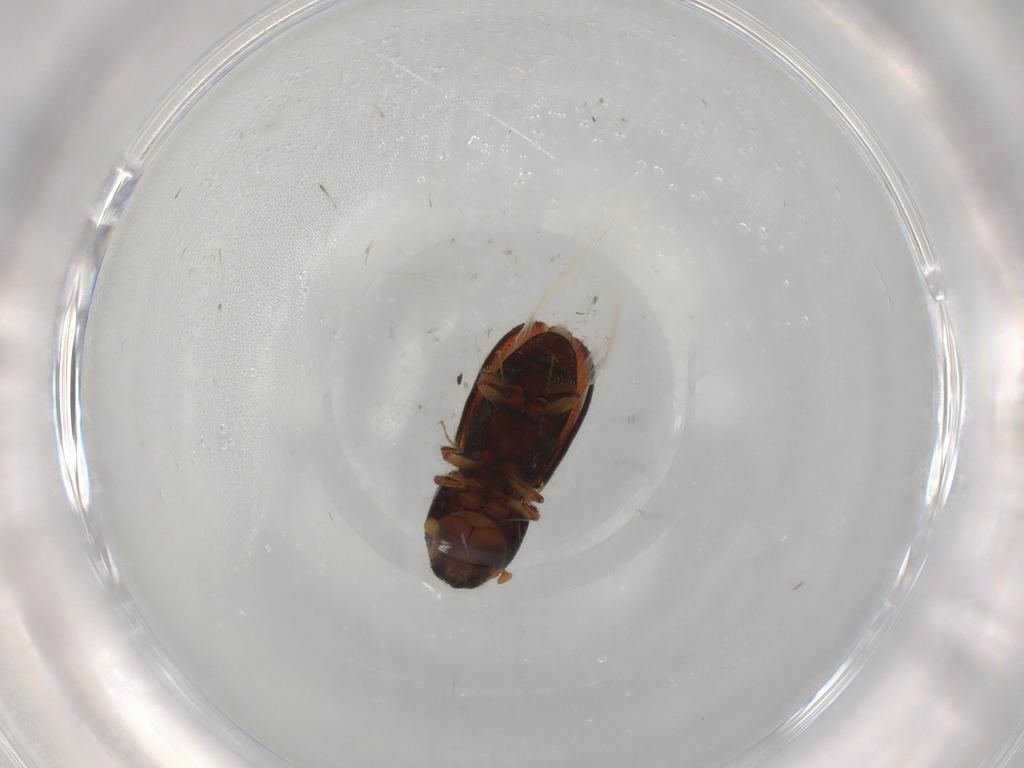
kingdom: Animalia
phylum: Arthropoda
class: Insecta
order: Coleoptera
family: Curculionidae
